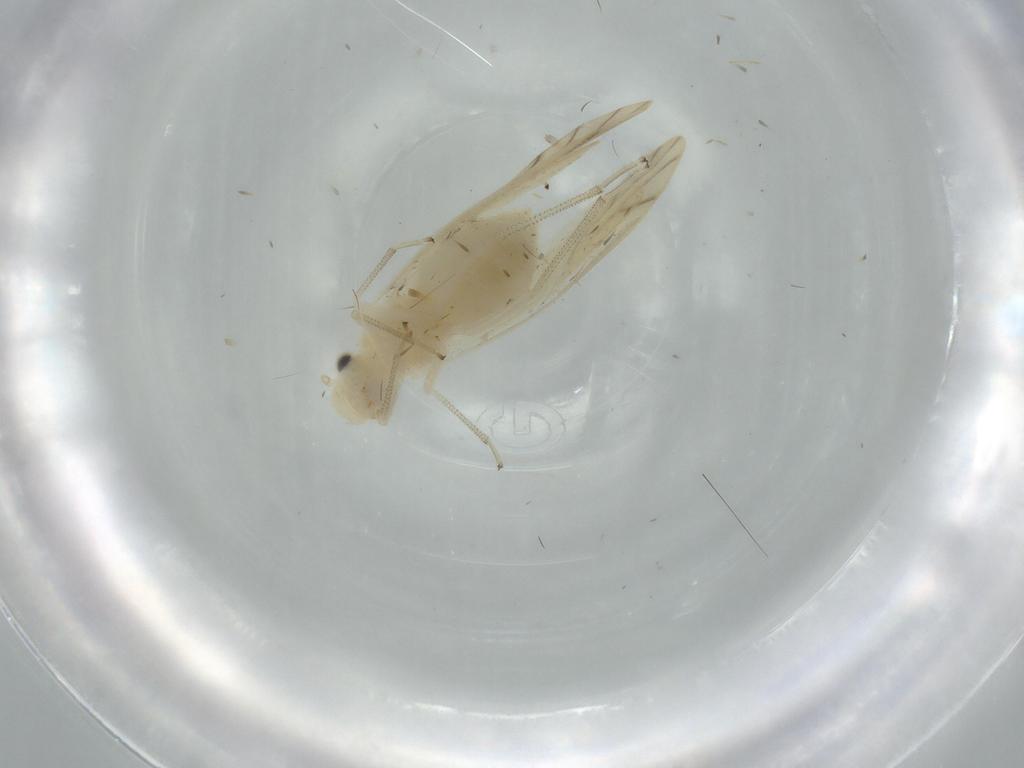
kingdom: Animalia
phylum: Arthropoda
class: Insecta
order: Psocodea
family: Caeciliusidae
